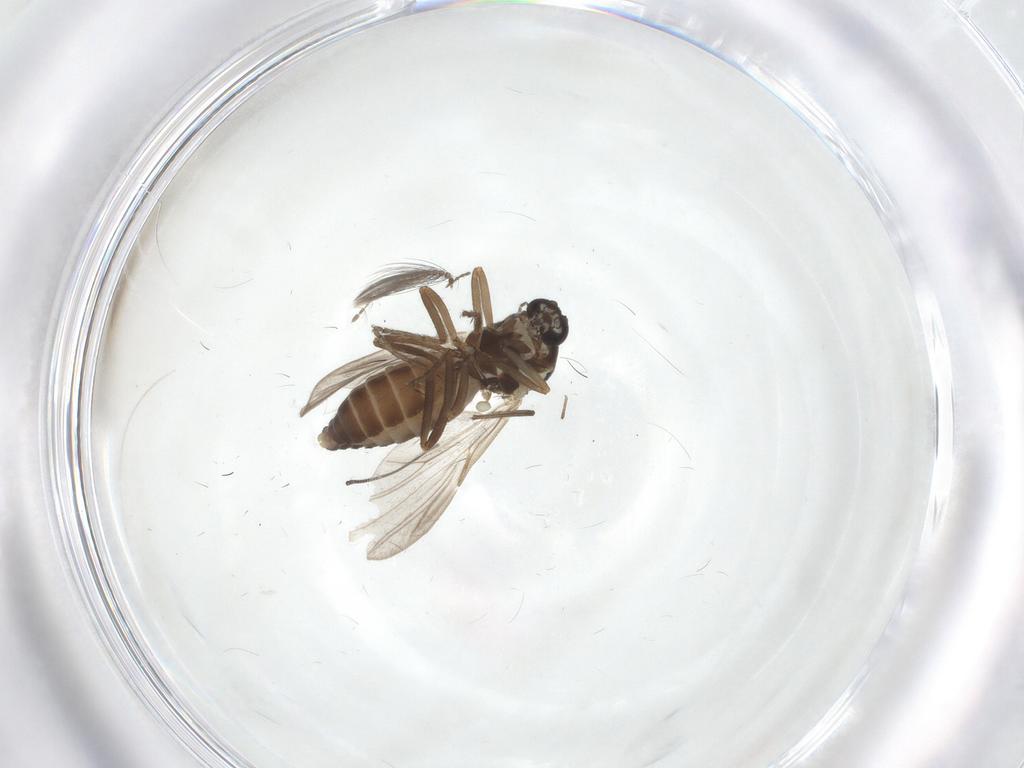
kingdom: Animalia
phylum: Arthropoda
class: Insecta
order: Diptera
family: Ceratopogonidae
